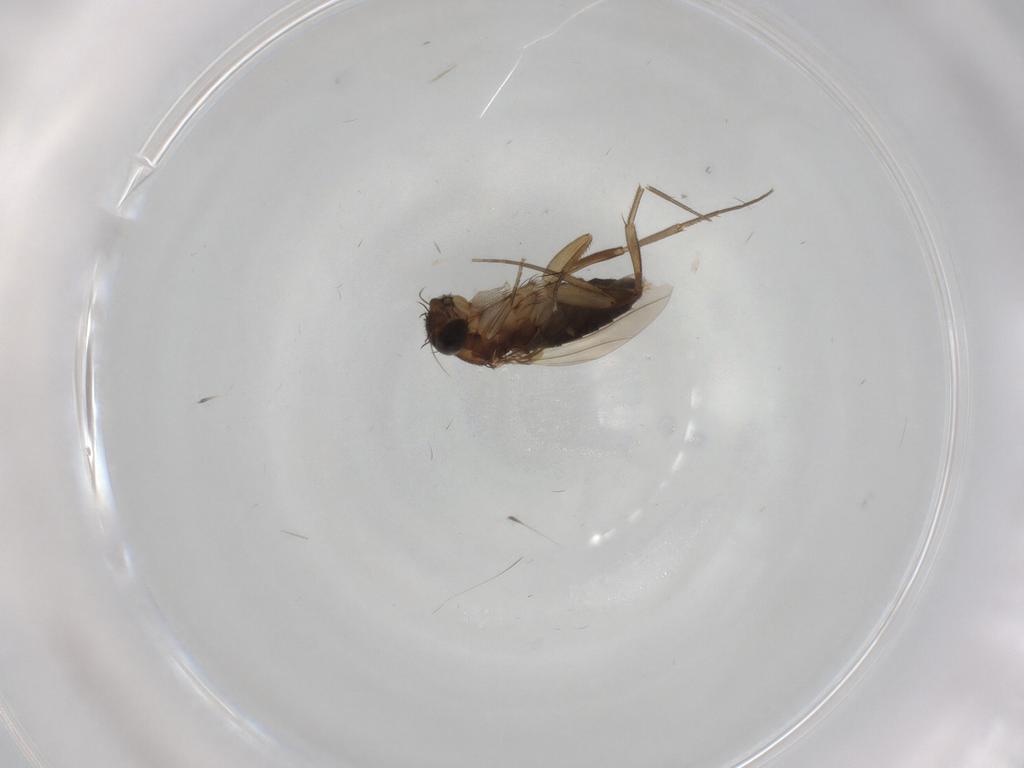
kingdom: Animalia
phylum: Arthropoda
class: Insecta
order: Diptera
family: Phoridae
